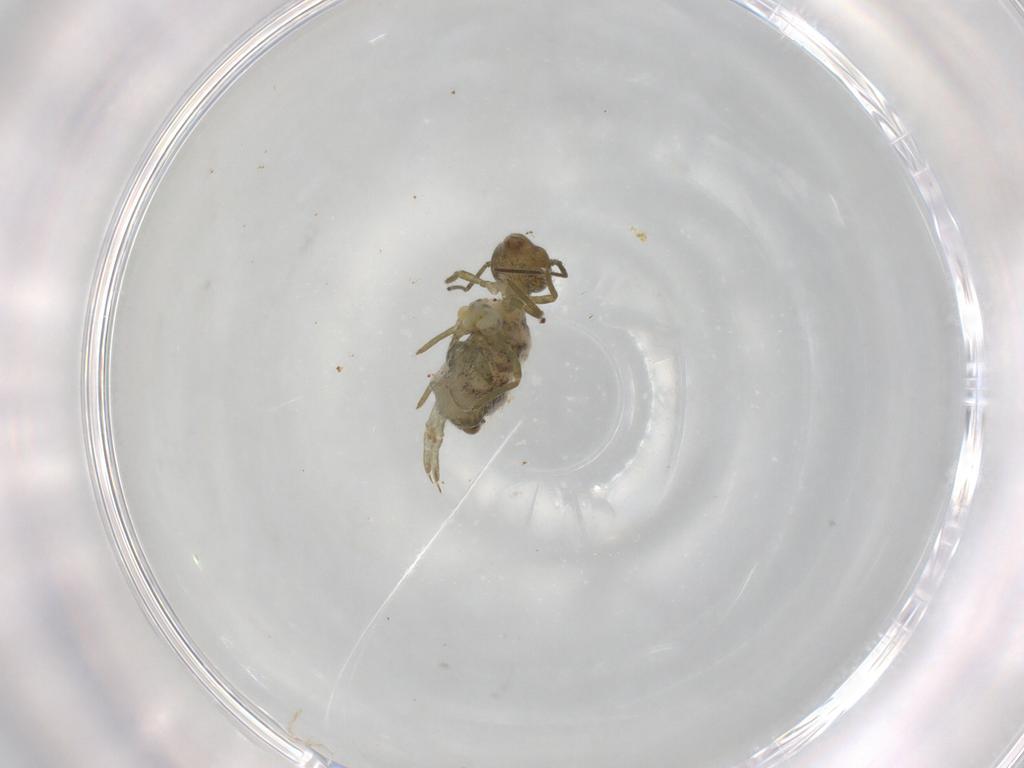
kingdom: Animalia
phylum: Arthropoda
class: Collembola
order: Symphypleona
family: Sminthuridae
